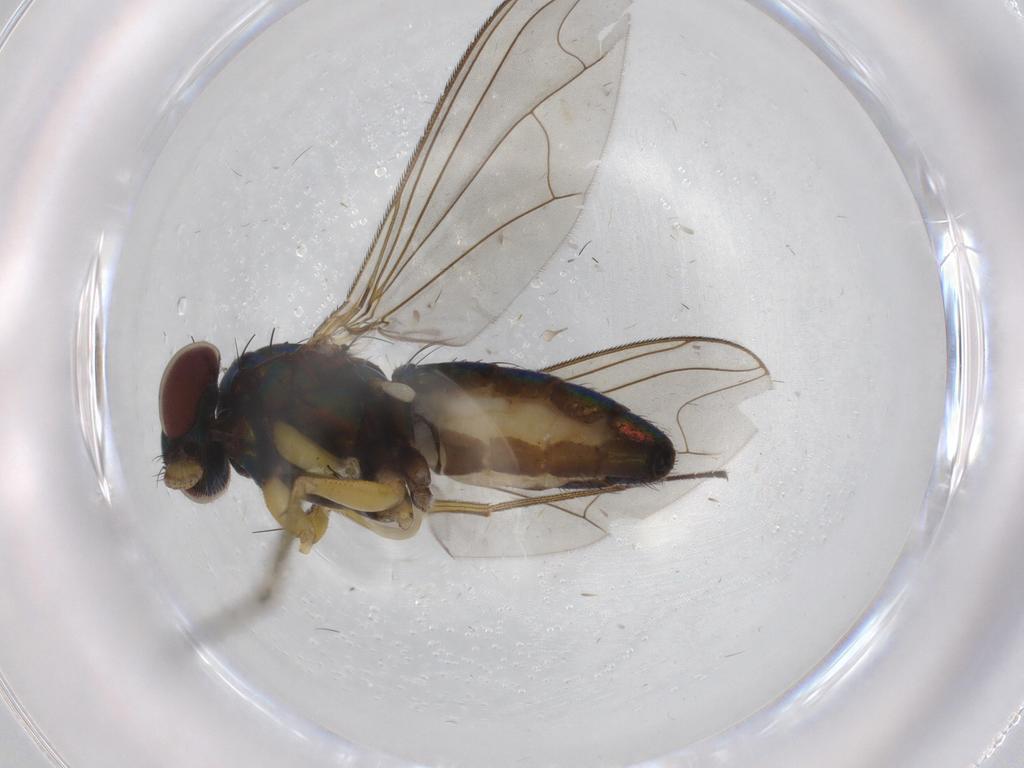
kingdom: Animalia
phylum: Arthropoda
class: Insecta
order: Diptera
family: Dolichopodidae
